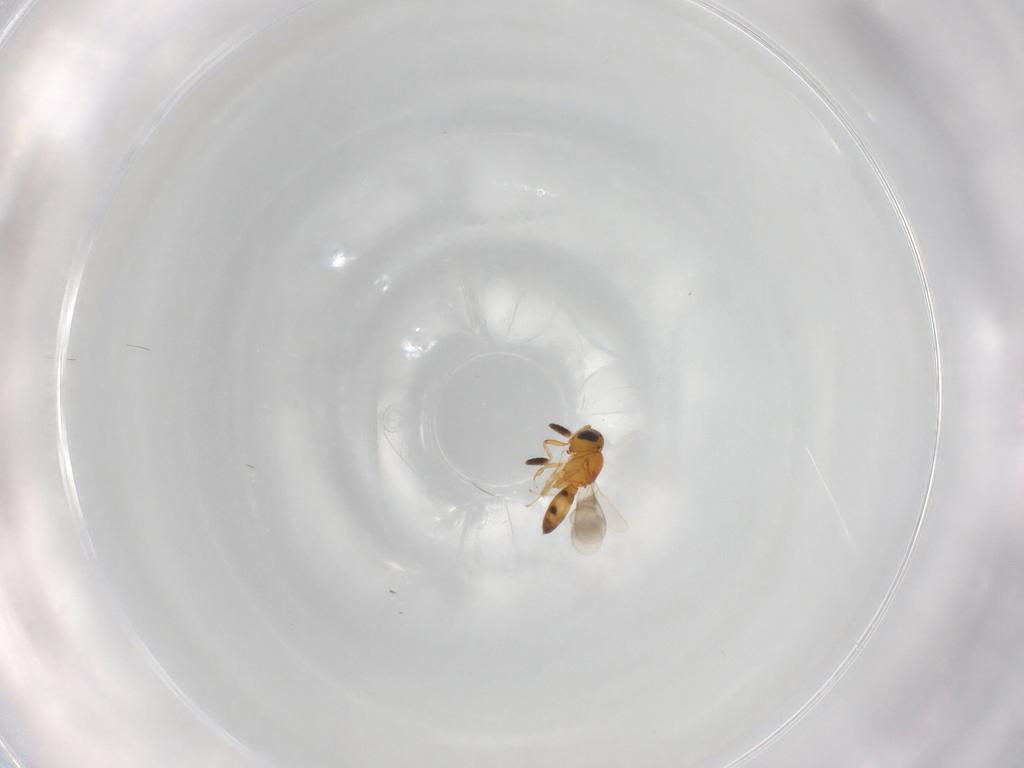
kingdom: Animalia
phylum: Arthropoda
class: Insecta
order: Hymenoptera
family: Scelionidae
